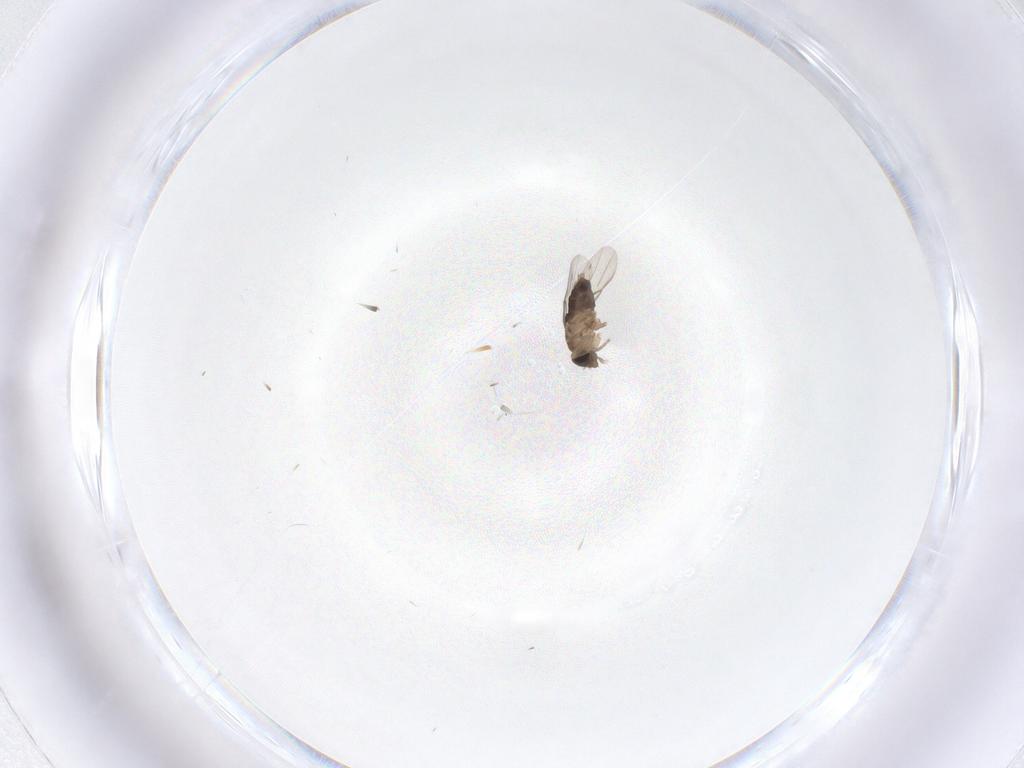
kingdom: Animalia
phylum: Arthropoda
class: Insecta
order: Diptera
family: Phoridae
